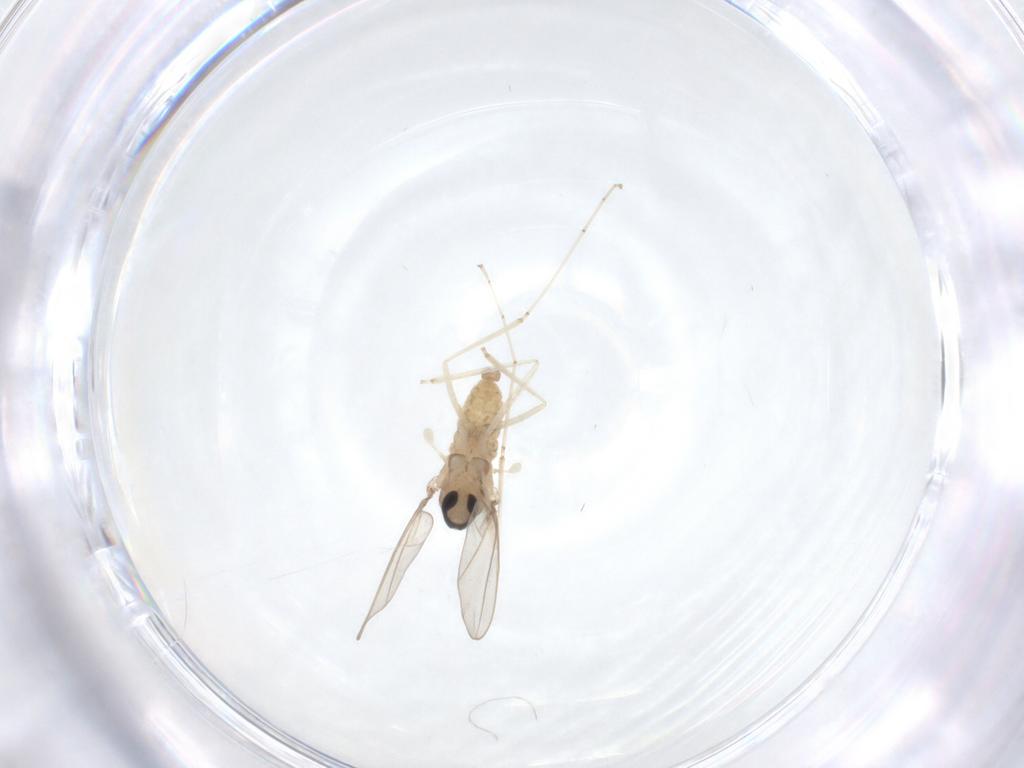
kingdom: Animalia
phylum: Arthropoda
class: Insecta
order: Diptera
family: Cecidomyiidae
